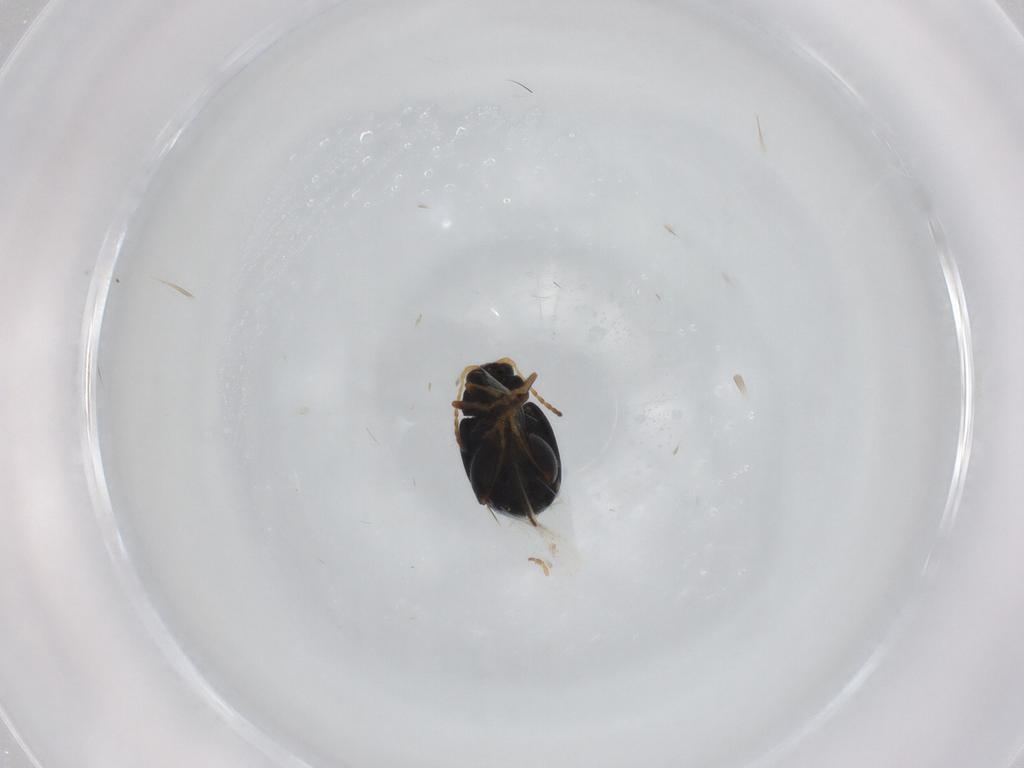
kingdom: Animalia
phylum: Arthropoda
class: Insecta
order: Coleoptera
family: Chrysomelidae
